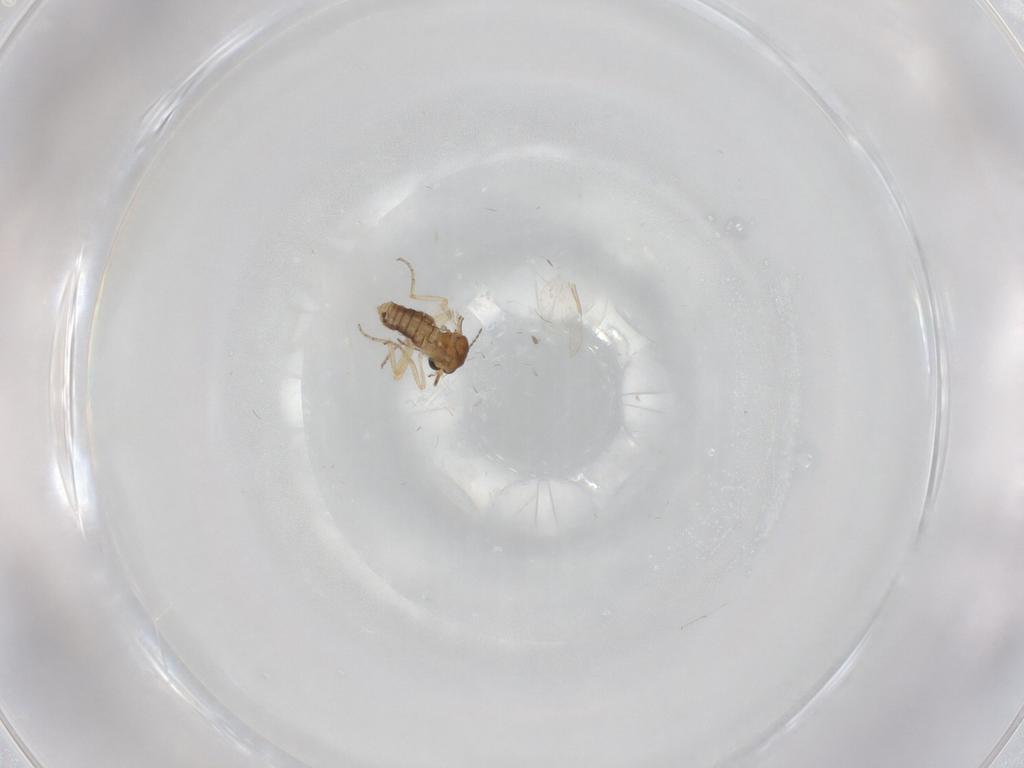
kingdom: Animalia
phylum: Arthropoda
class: Insecta
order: Diptera
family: Ceratopogonidae
